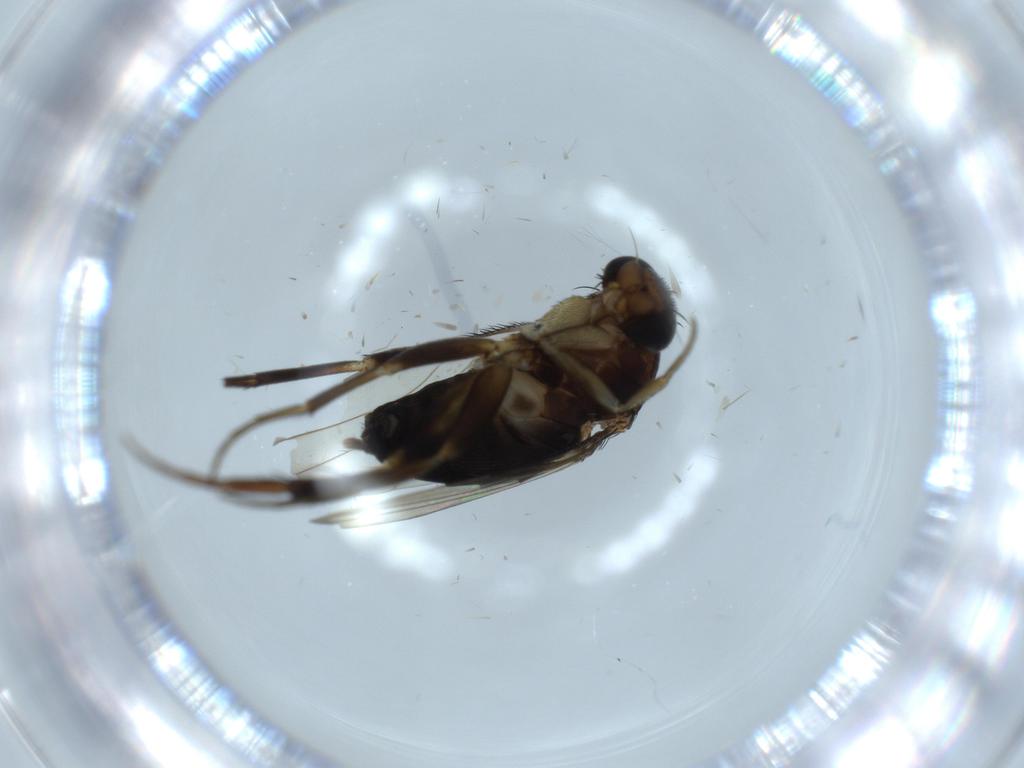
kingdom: Animalia
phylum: Arthropoda
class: Insecta
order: Diptera
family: Phoridae
